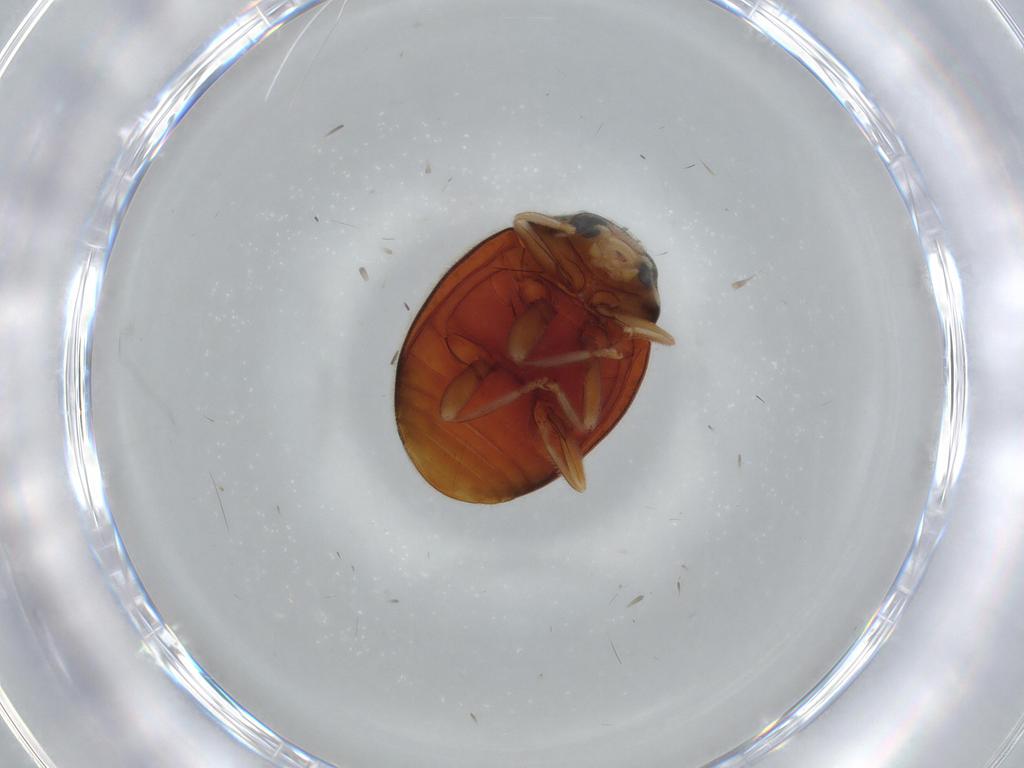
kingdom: Animalia
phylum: Arthropoda
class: Insecta
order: Coleoptera
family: Coccinellidae
